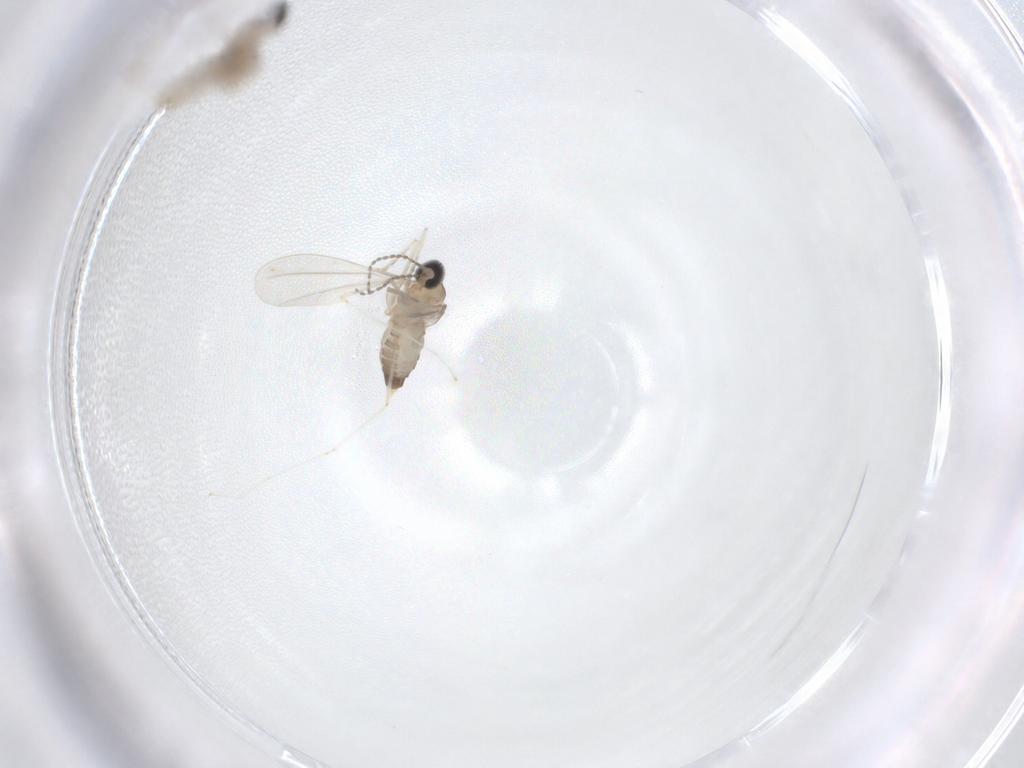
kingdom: Animalia
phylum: Arthropoda
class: Insecta
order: Diptera
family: Cecidomyiidae
